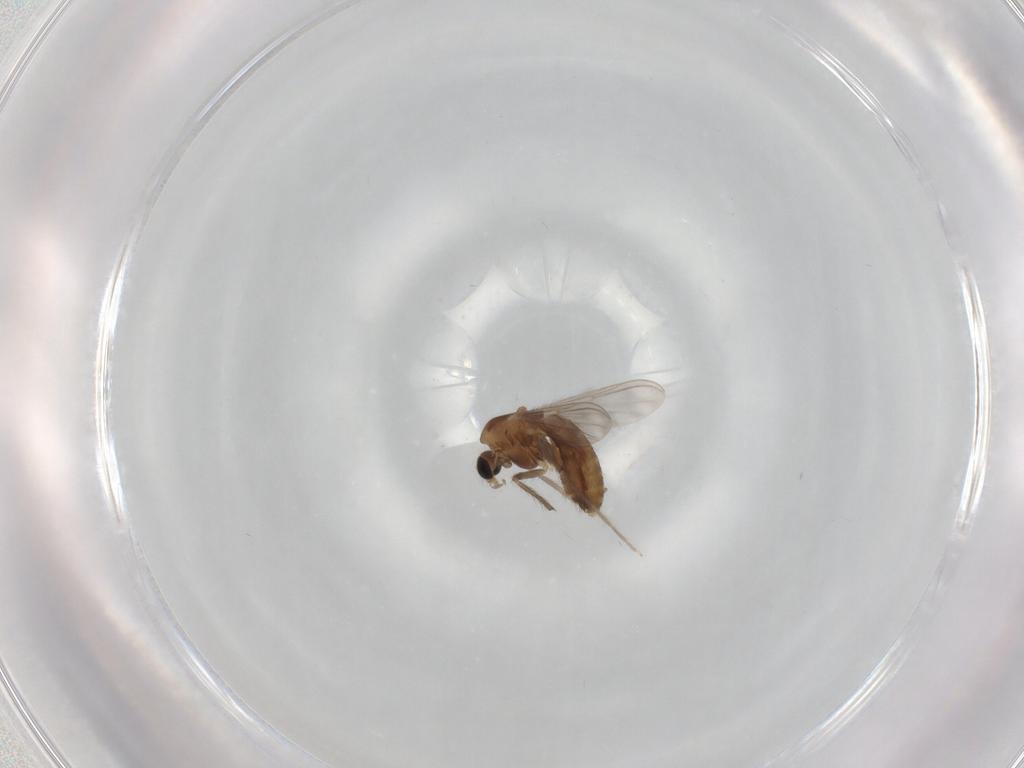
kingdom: Animalia
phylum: Arthropoda
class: Insecta
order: Diptera
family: Chironomidae
